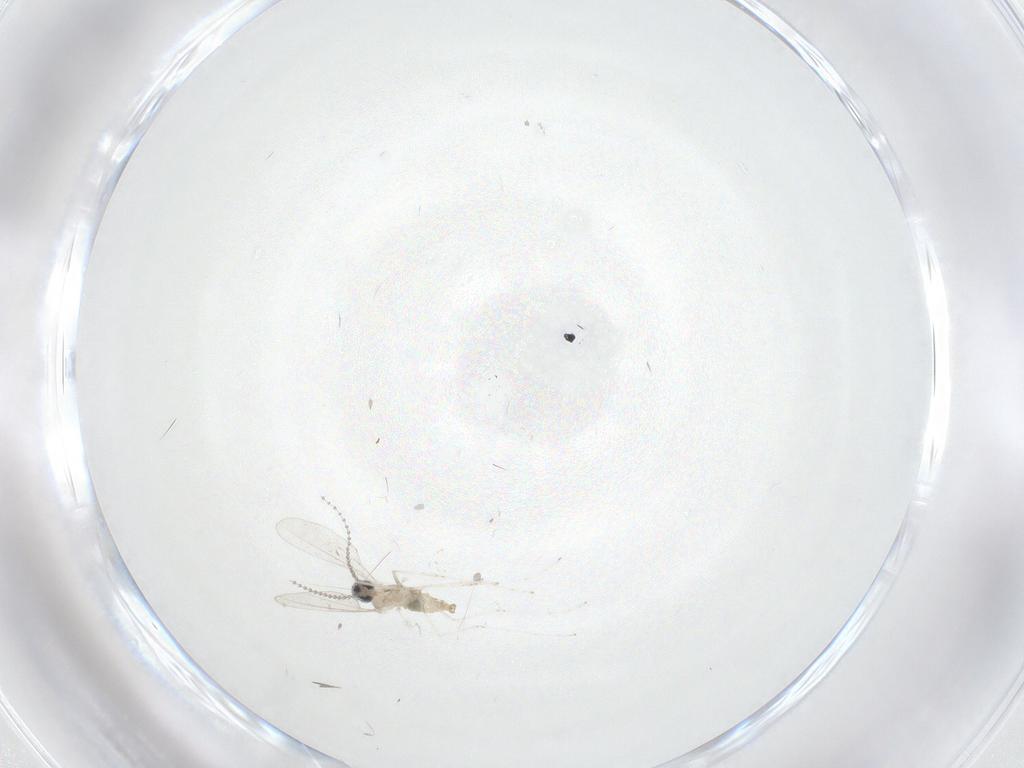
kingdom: Animalia
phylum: Arthropoda
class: Insecta
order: Diptera
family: Cecidomyiidae
